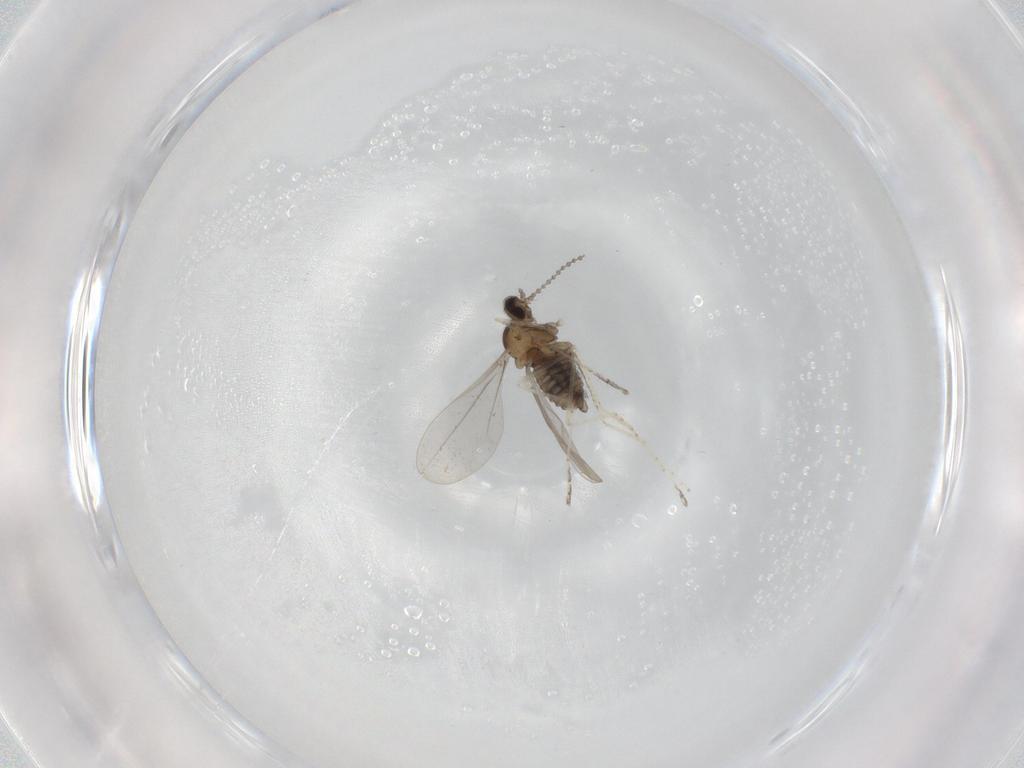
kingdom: Animalia
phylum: Arthropoda
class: Insecta
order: Diptera
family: Cecidomyiidae
